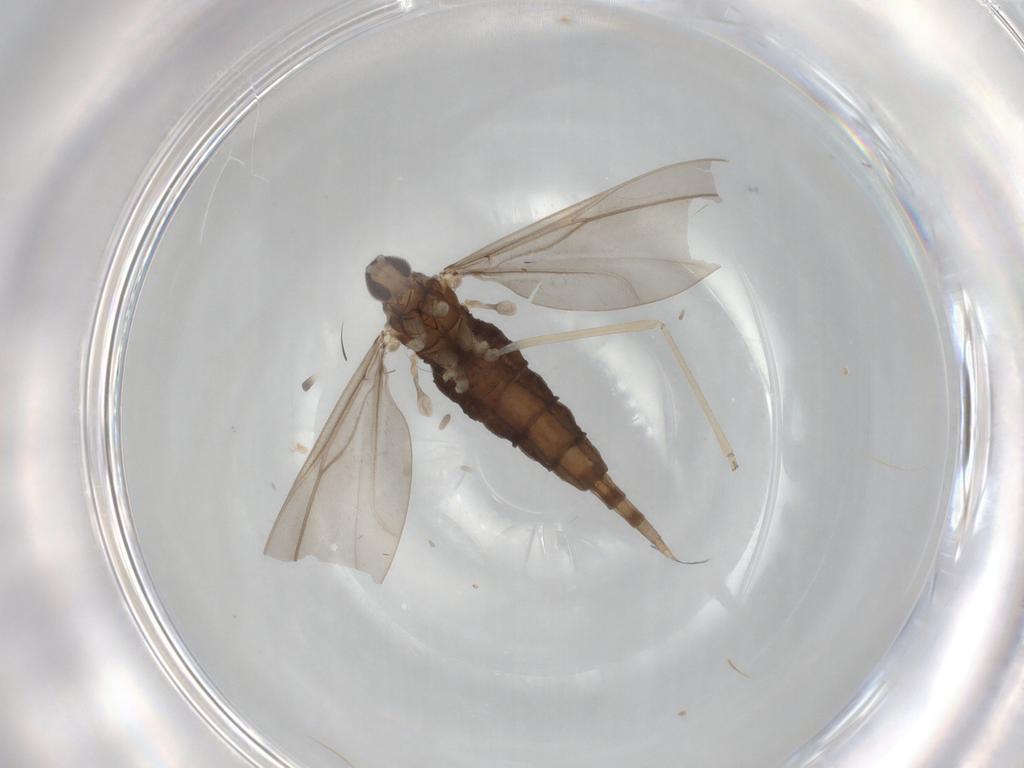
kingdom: Animalia
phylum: Arthropoda
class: Insecta
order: Diptera
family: Cecidomyiidae
